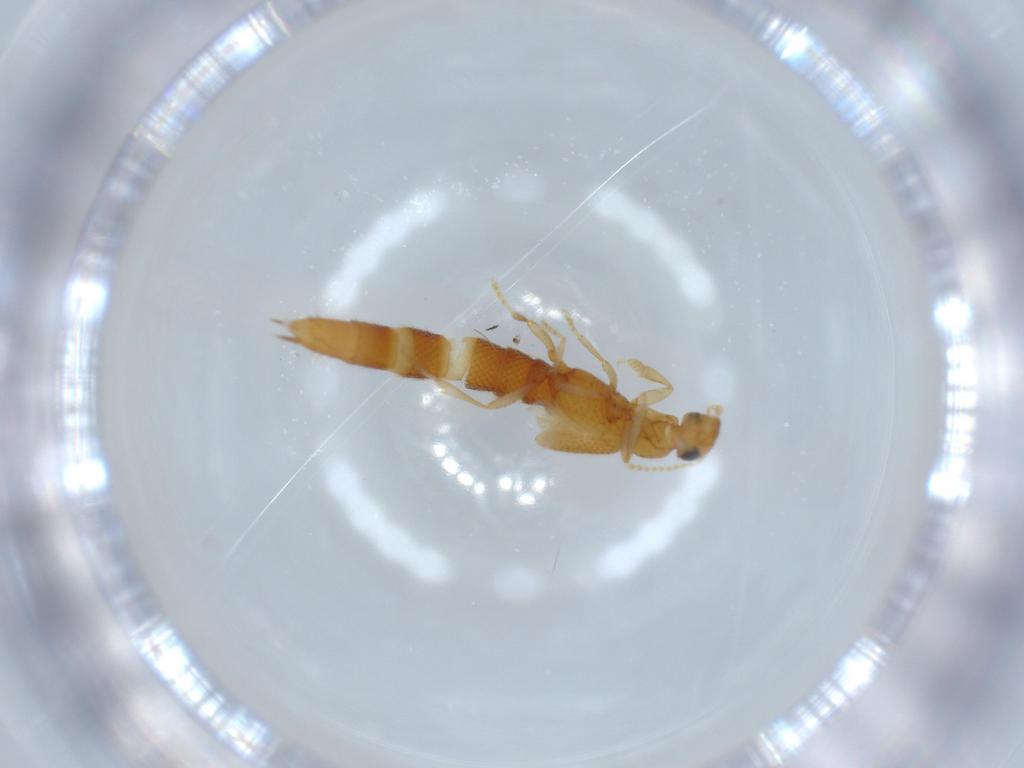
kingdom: Animalia
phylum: Arthropoda
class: Insecta
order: Coleoptera
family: Staphylinidae
